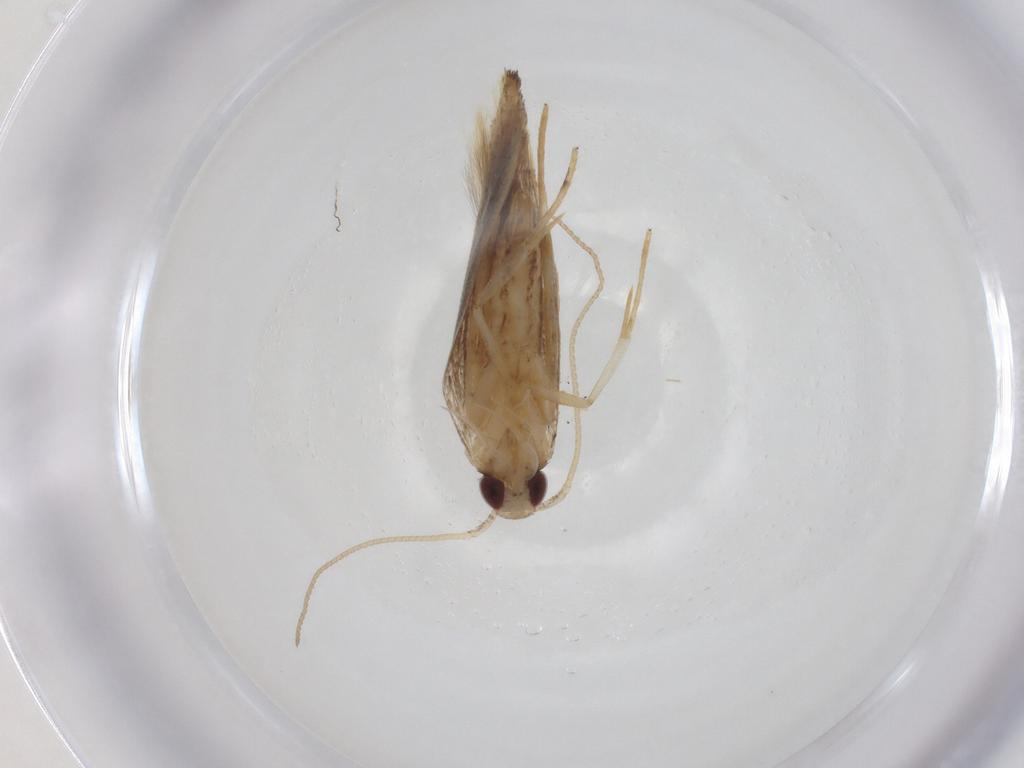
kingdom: Animalia
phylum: Arthropoda
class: Insecta
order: Lepidoptera
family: Cosmopterigidae
